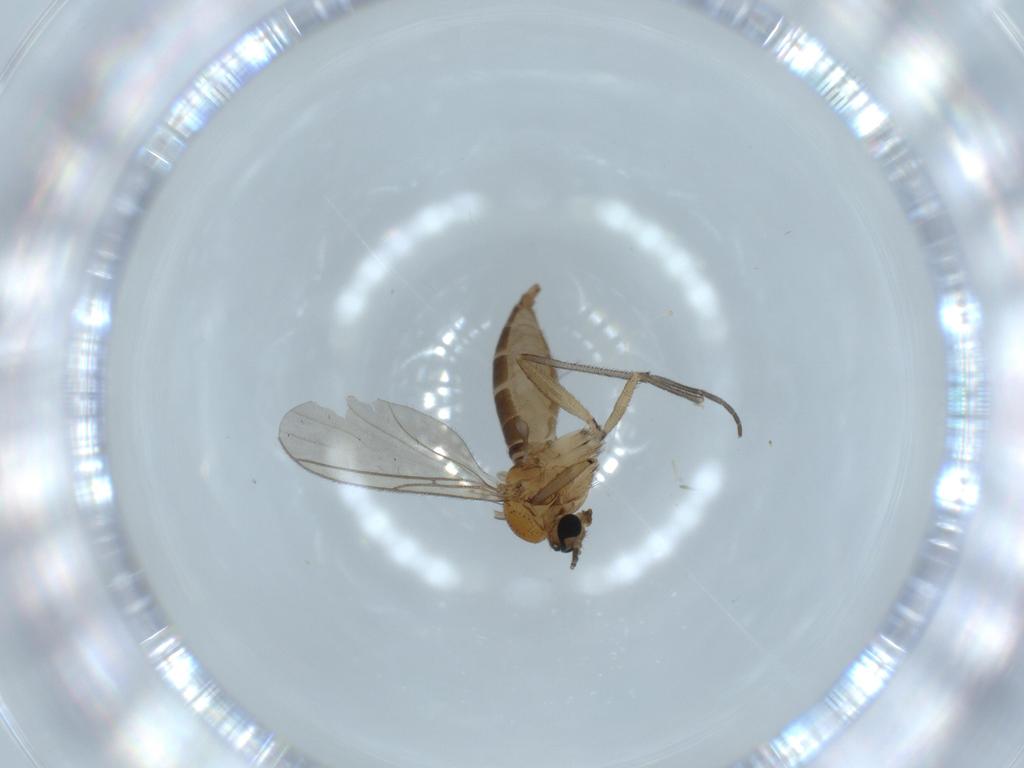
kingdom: Animalia
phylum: Arthropoda
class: Insecta
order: Diptera
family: Sciaridae
